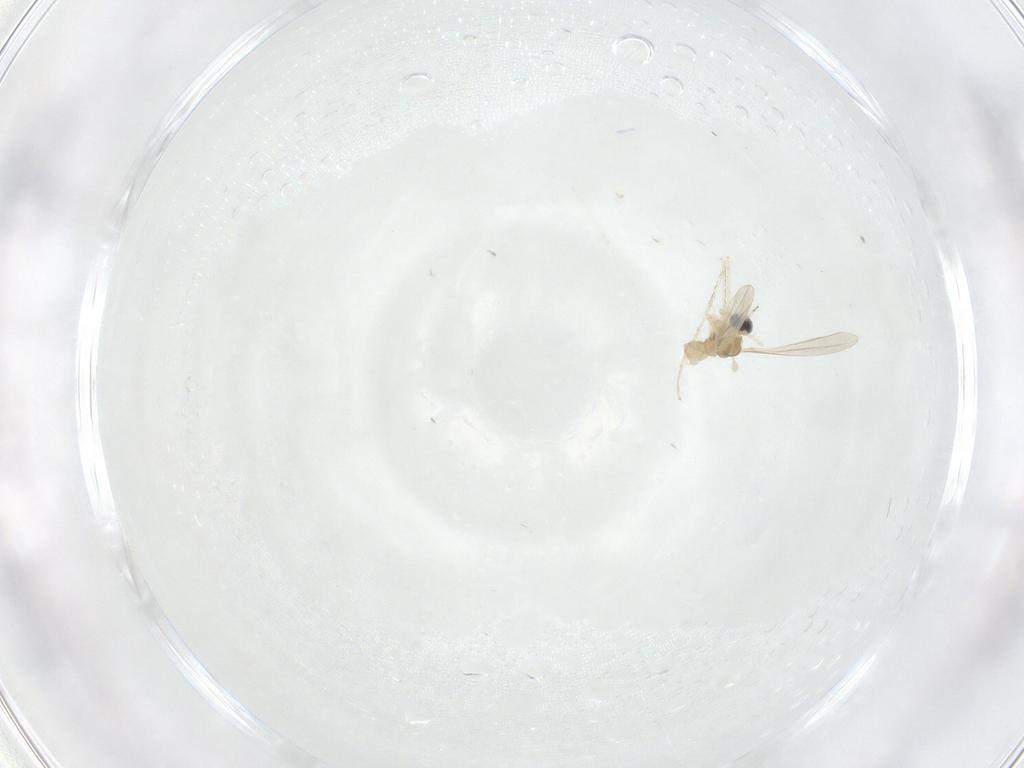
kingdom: Animalia
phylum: Arthropoda
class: Insecta
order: Diptera
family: Cecidomyiidae
